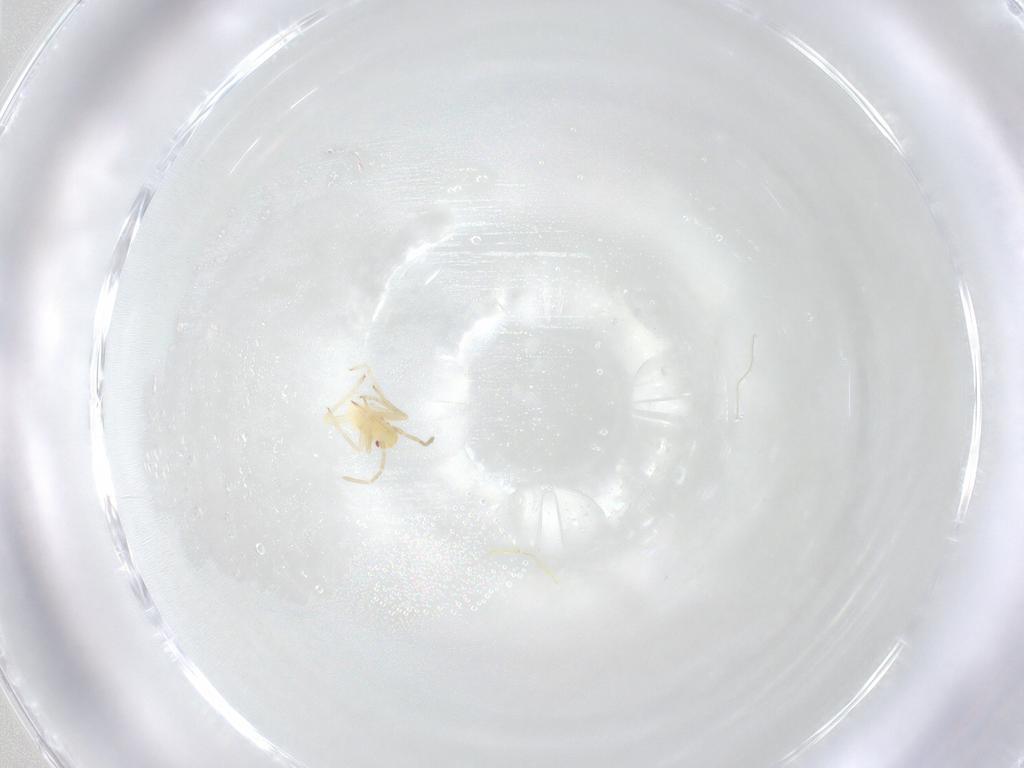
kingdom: Animalia
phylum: Arthropoda
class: Insecta
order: Hemiptera
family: Miridae
